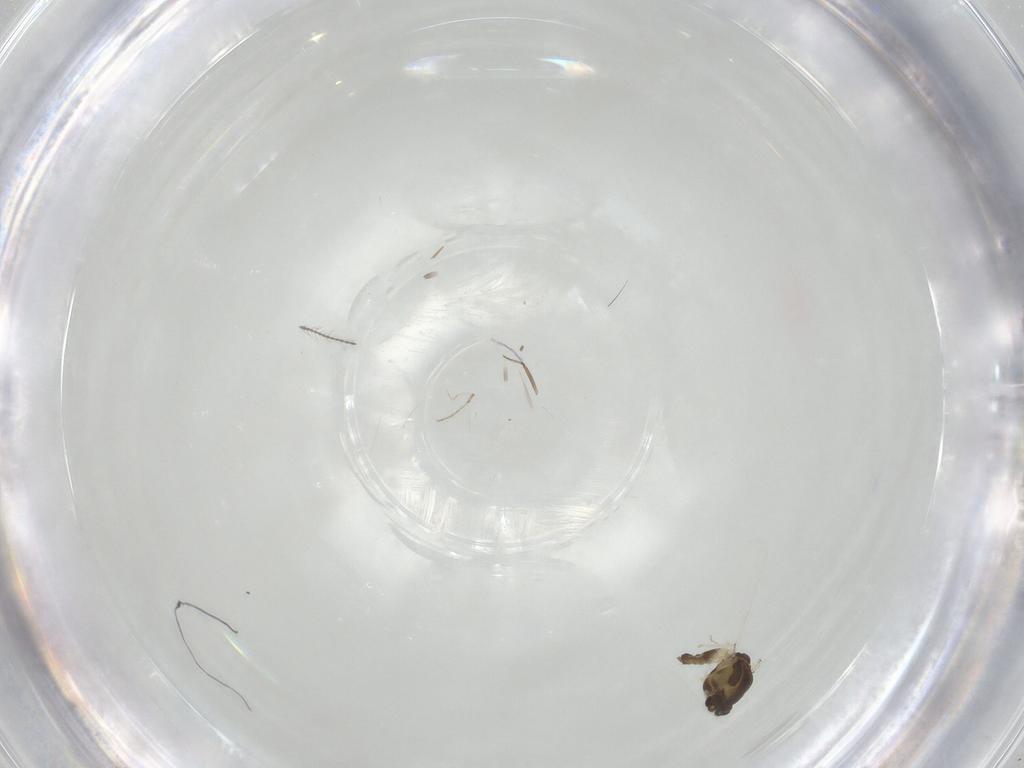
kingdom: Animalia
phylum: Arthropoda
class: Insecta
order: Diptera
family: Chironomidae
